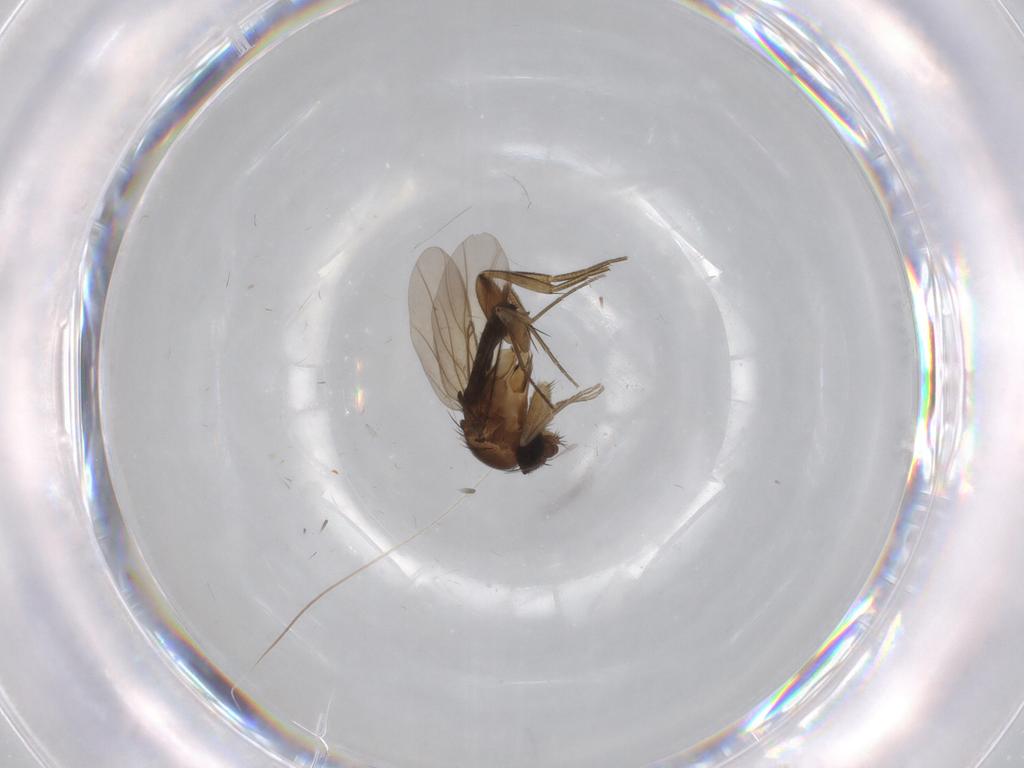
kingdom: Animalia
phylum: Arthropoda
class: Insecta
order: Diptera
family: Phoridae
